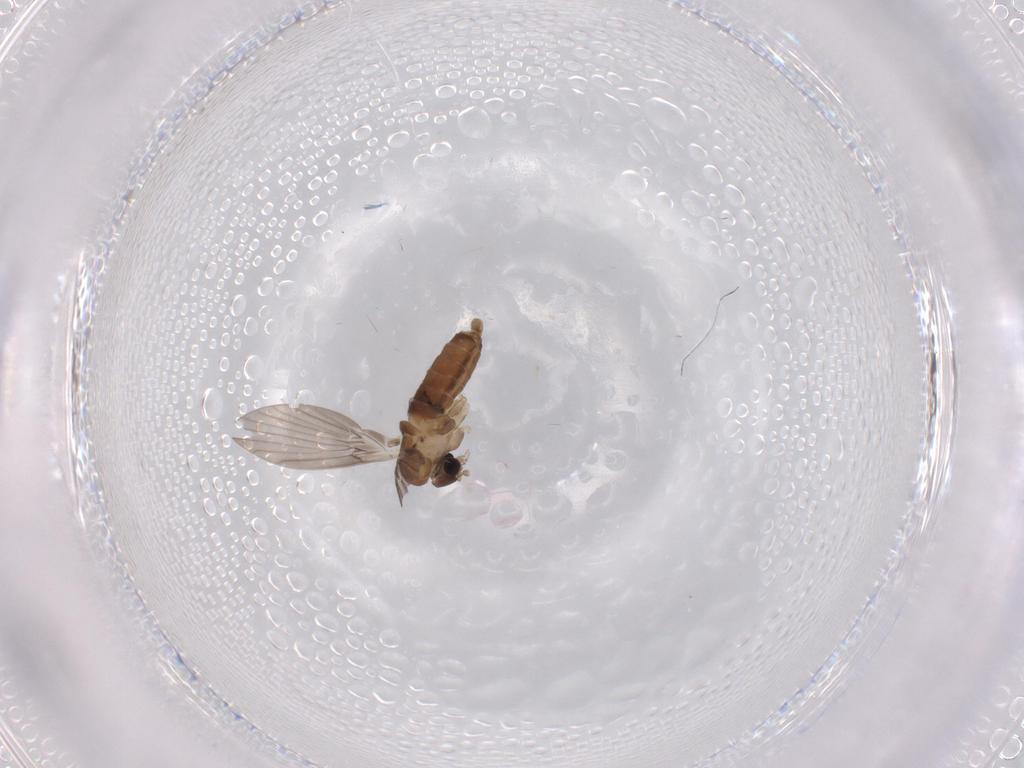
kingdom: Animalia
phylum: Arthropoda
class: Insecta
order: Diptera
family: Chironomidae
